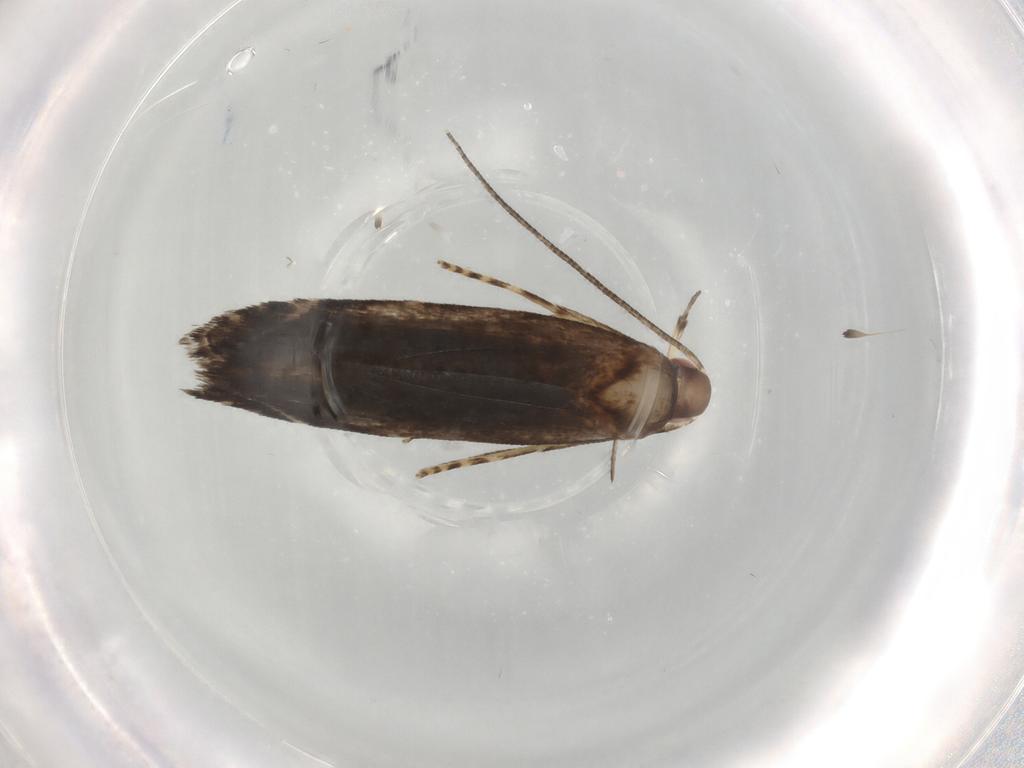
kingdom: Animalia
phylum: Arthropoda
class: Insecta
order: Lepidoptera
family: Gelechiidae
